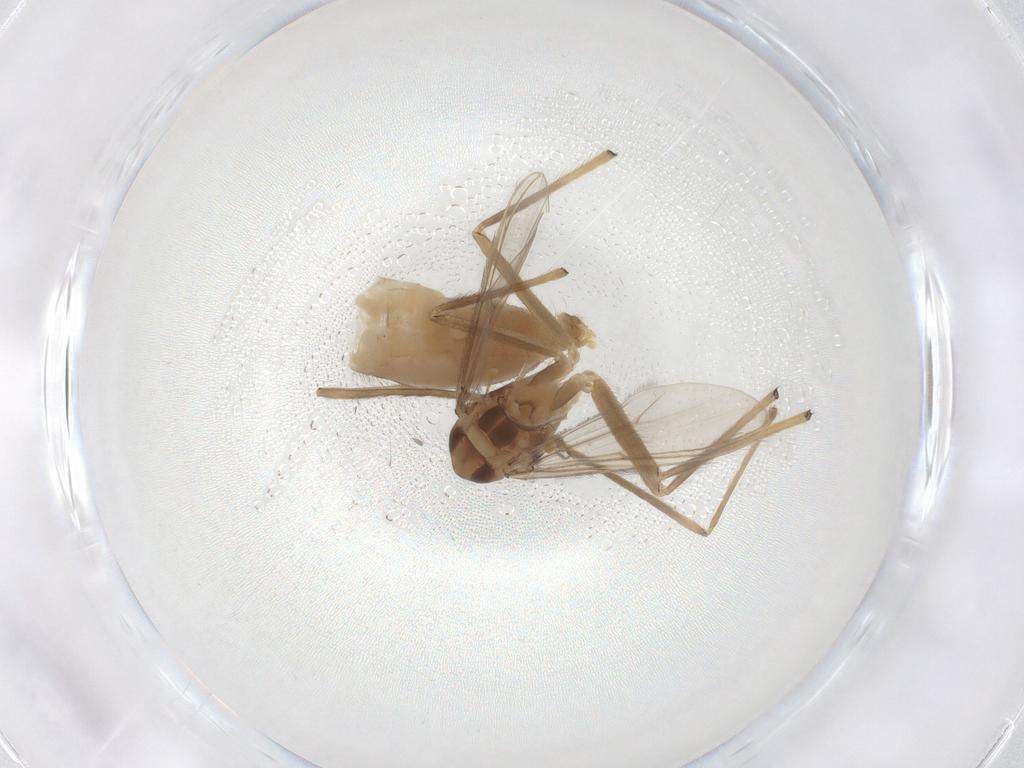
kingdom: Animalia
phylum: Arthropoda
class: Insecta
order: Diptera
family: Chironomidae
